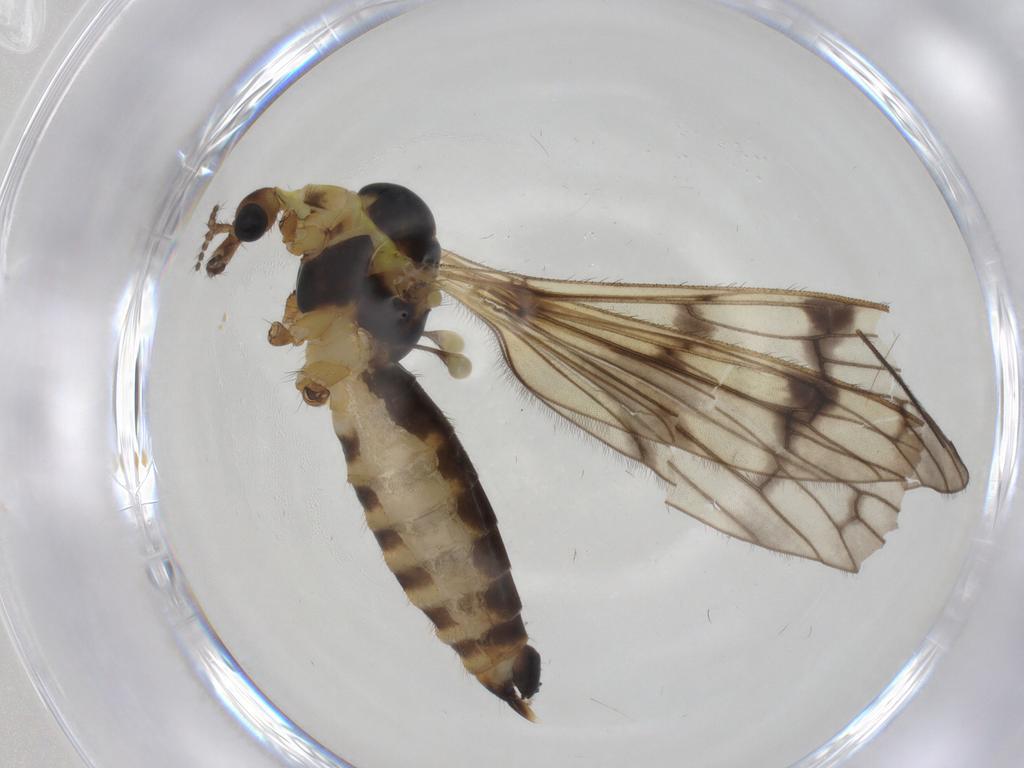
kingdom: Animalia
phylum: Arthropoda
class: Insecta
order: Diptera
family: Limoniidae
